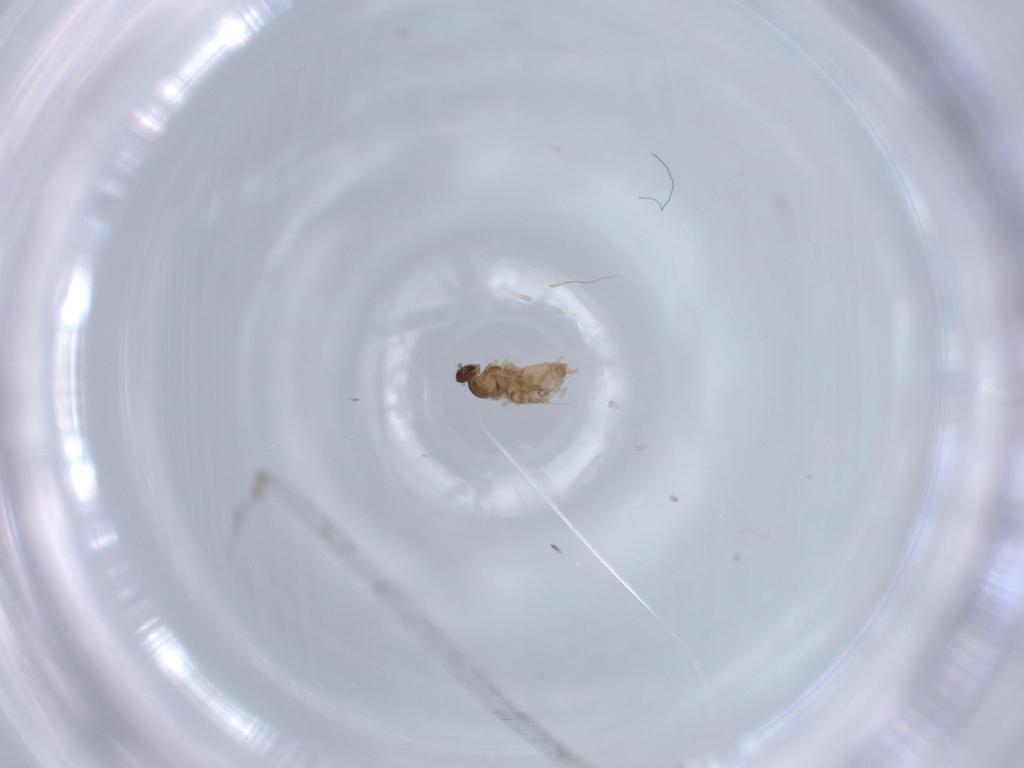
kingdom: Animalia
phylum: Arthropoda
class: Insecta
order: Diptera
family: Cecidomyiidae
